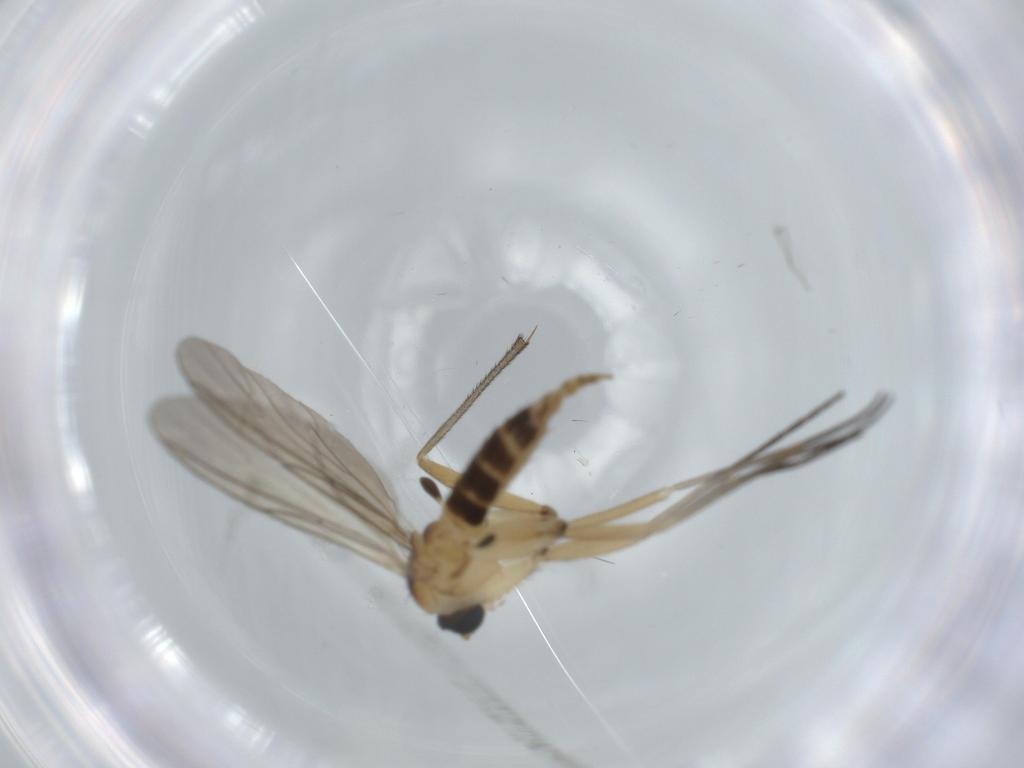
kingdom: Animalia
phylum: Arthropoda
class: Insecta
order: Diptera
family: Sciaridae
